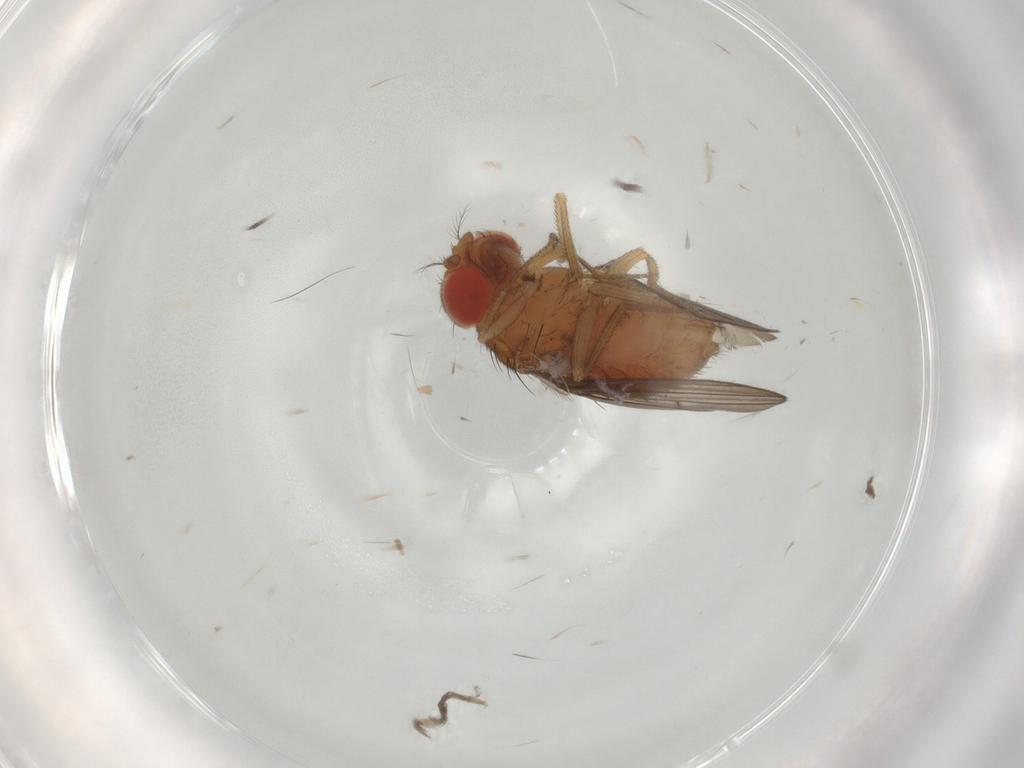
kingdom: Animalia
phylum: Arthropoda
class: Insecta
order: Diptera
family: Drosophilidae
